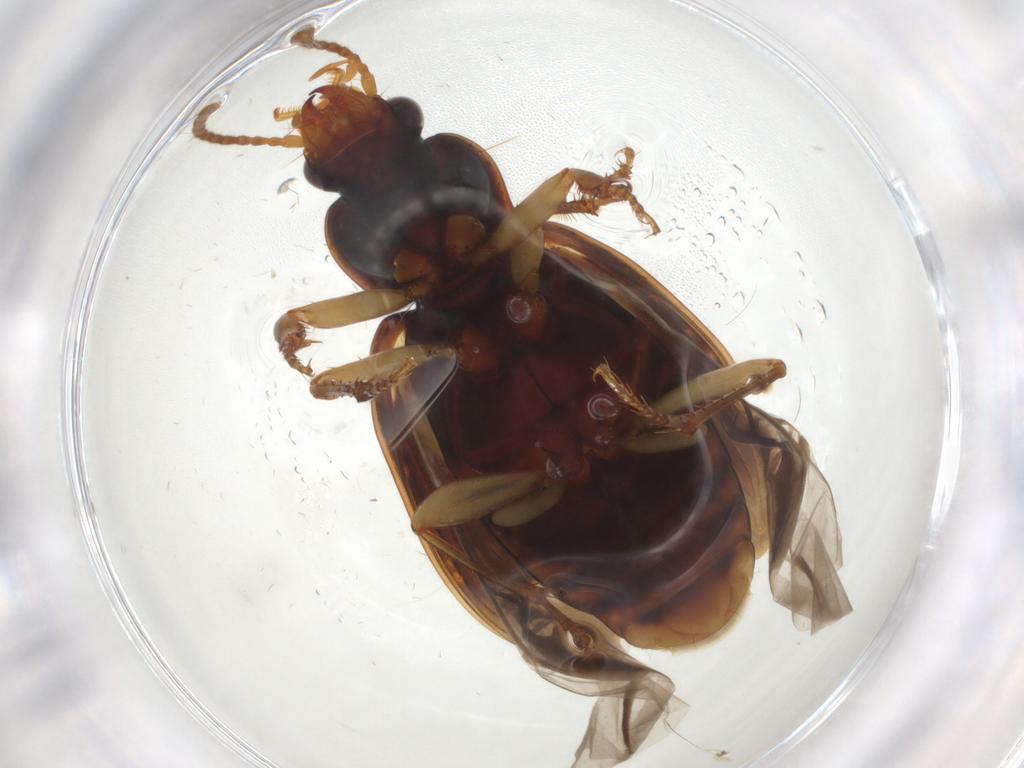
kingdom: Animalia
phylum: Arthropoda
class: Insecta
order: Coleoptera
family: Carabidae
